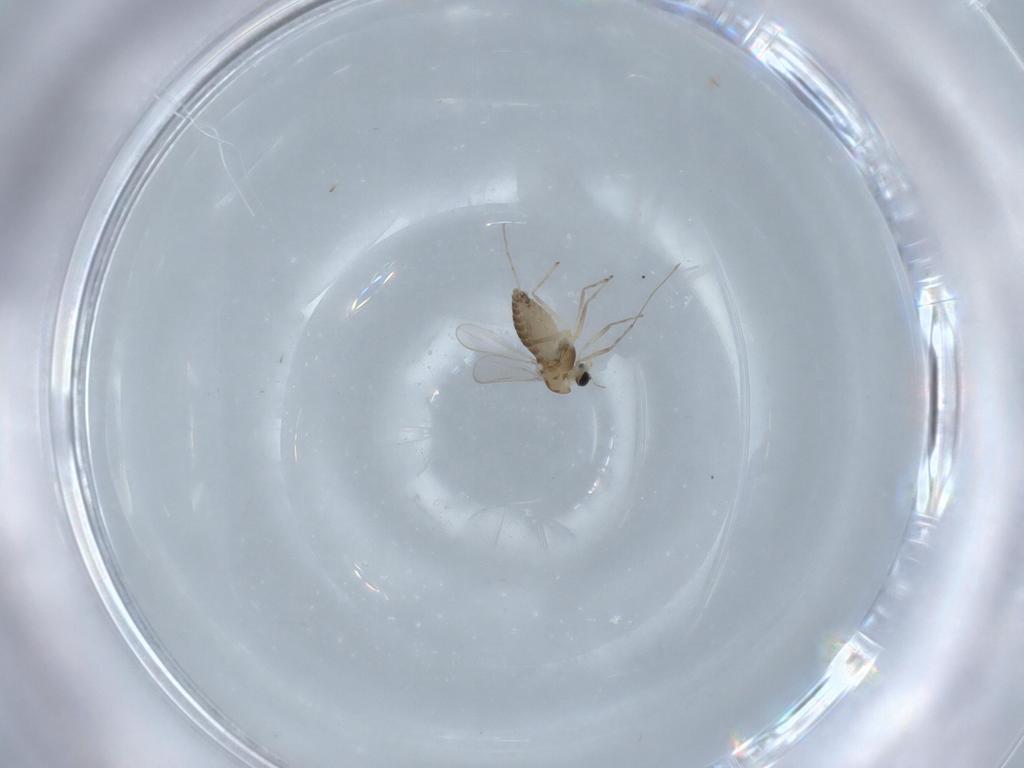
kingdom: Animalia
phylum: Arthropoda
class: Insecta
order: Diptera
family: Chironomidae
